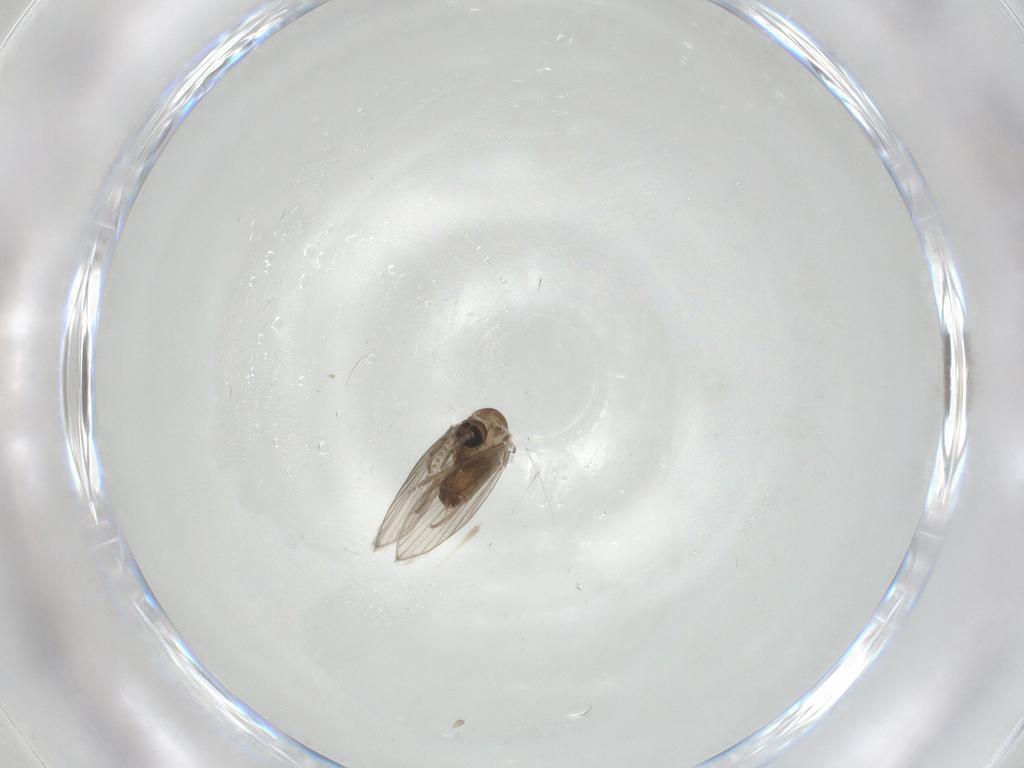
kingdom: Animalia
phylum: Arthropoda
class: Insecta
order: Diptera
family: Psychodidae
